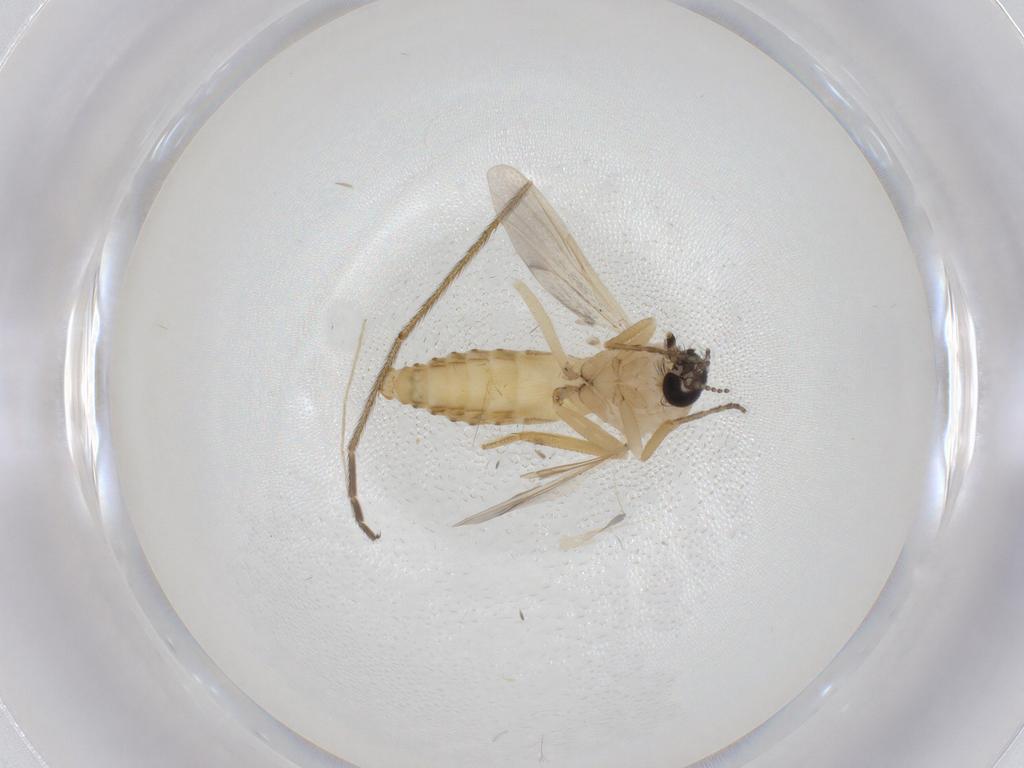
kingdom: Animalia
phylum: Arthropoda
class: Insecta
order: Diptera
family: Ceratopogonidae
